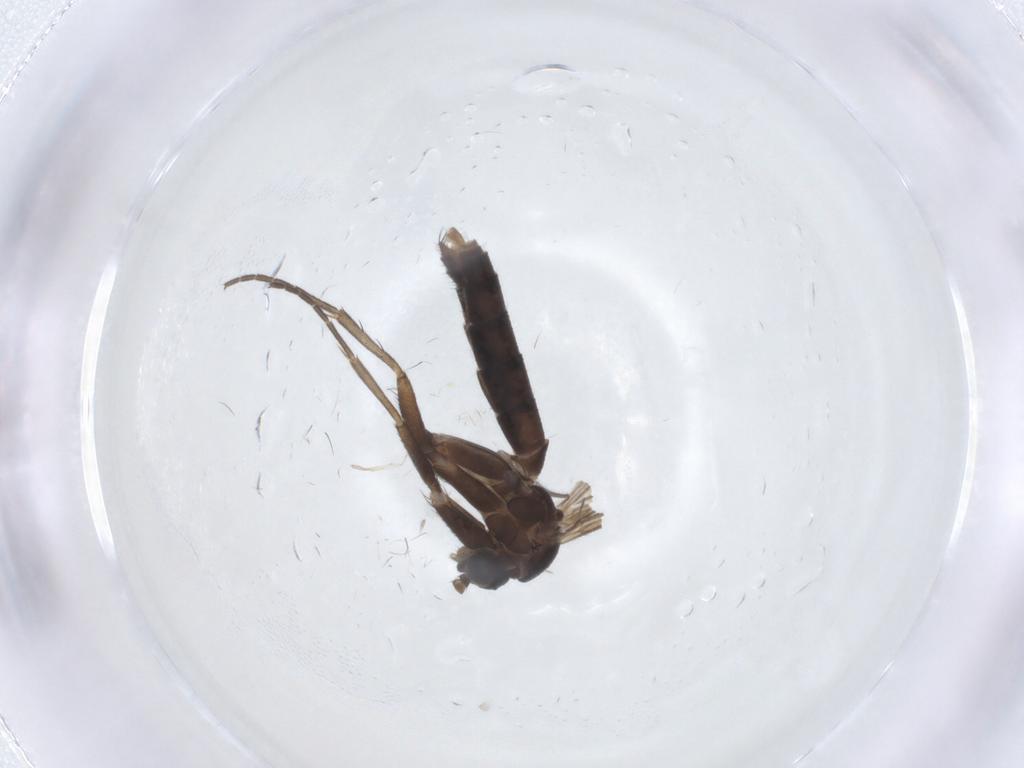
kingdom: Animalia
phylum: Arthropoda
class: Insecta
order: Diptera
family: Mycetophilidae
